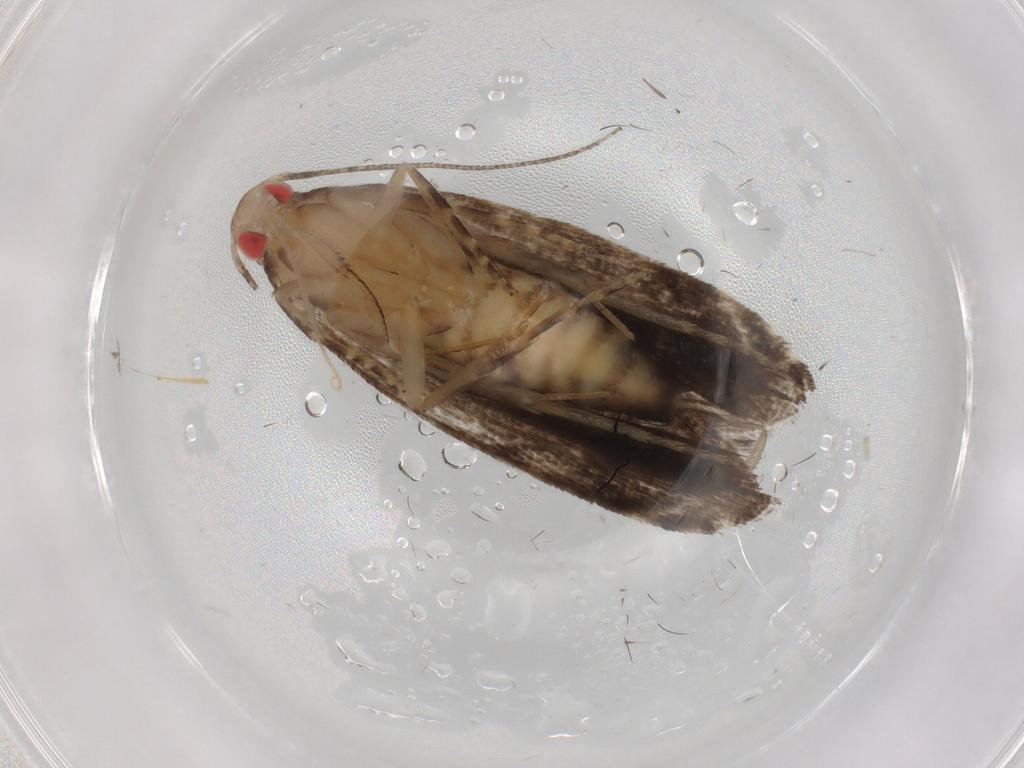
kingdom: Animalia
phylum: Arthropoda
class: Insecta
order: Lepidoptera
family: Crambidae
